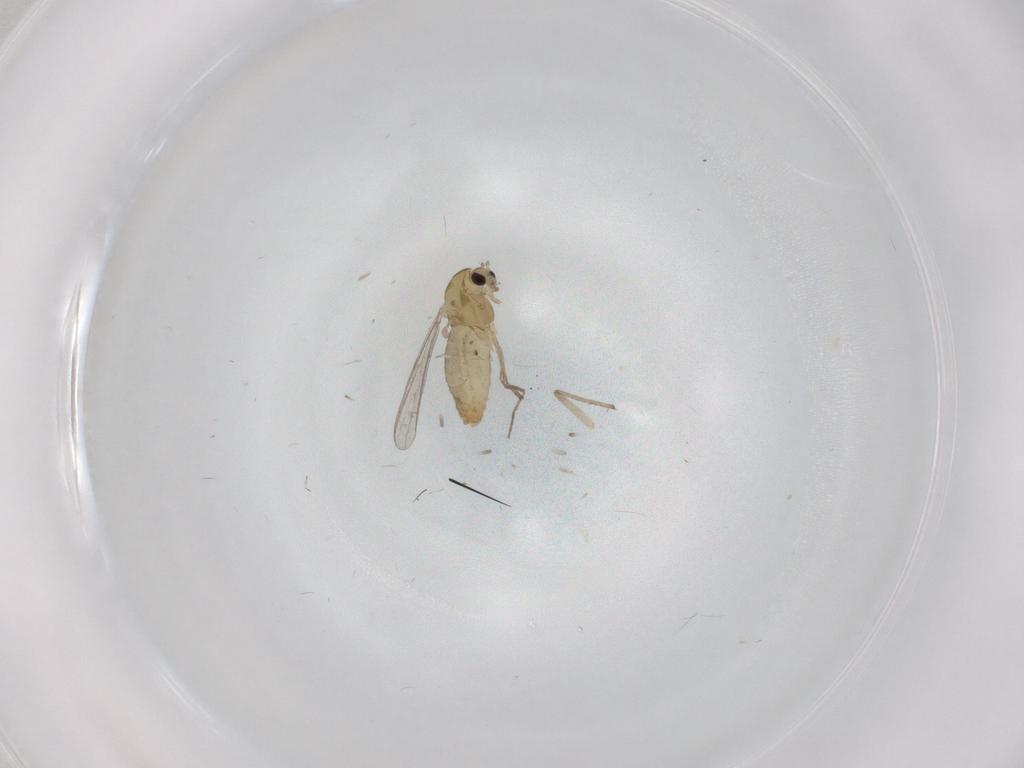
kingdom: Animalia
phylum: Arthropoda
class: Insecta
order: Diptera
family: Chironomidae
